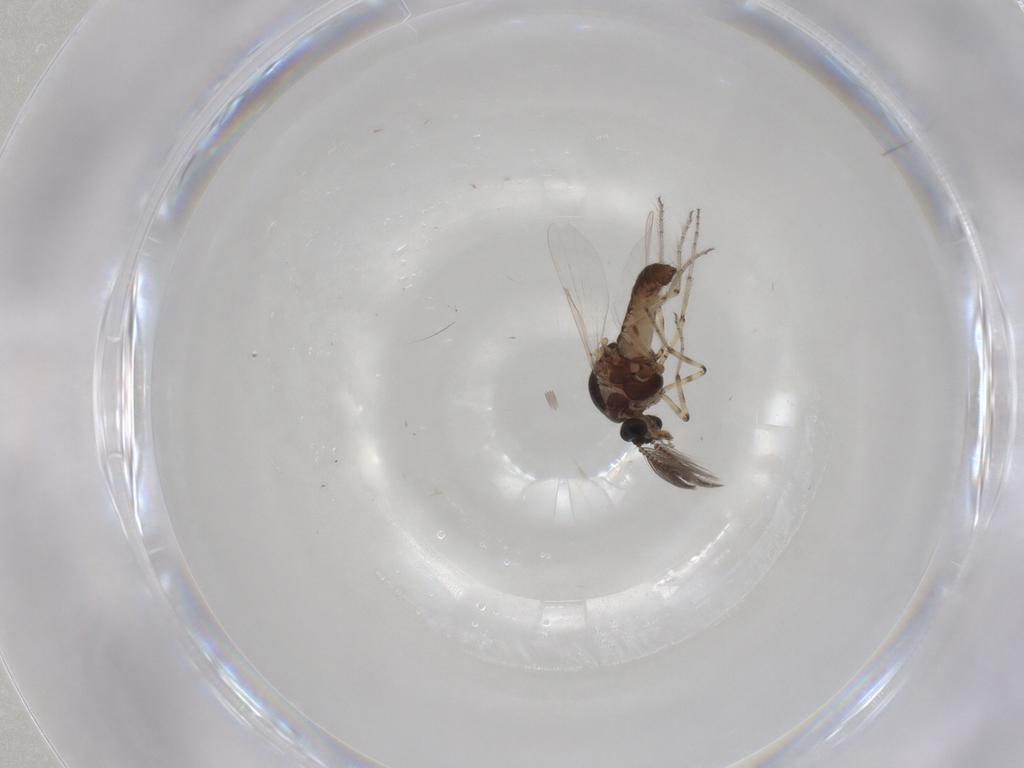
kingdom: Animalia
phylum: Arthropoda
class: Insecta
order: Diptera
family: Ceratopogonidae
